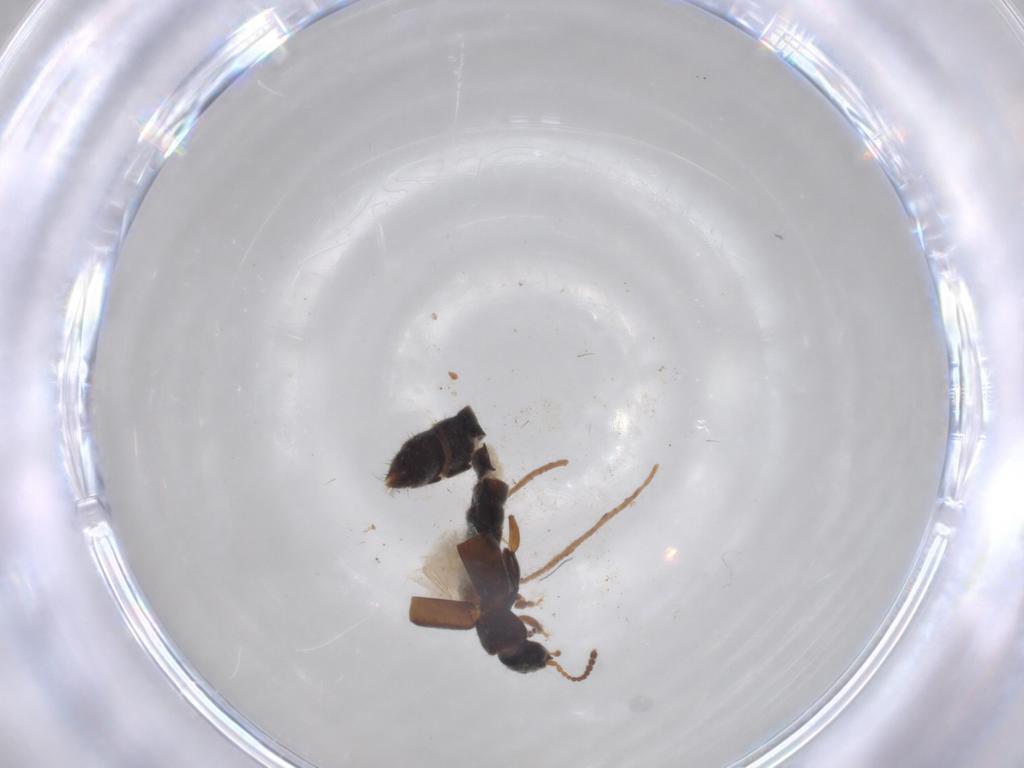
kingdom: Animalia
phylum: Arthropoda
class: Insecta
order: Coleoptera
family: Staphylinidae
